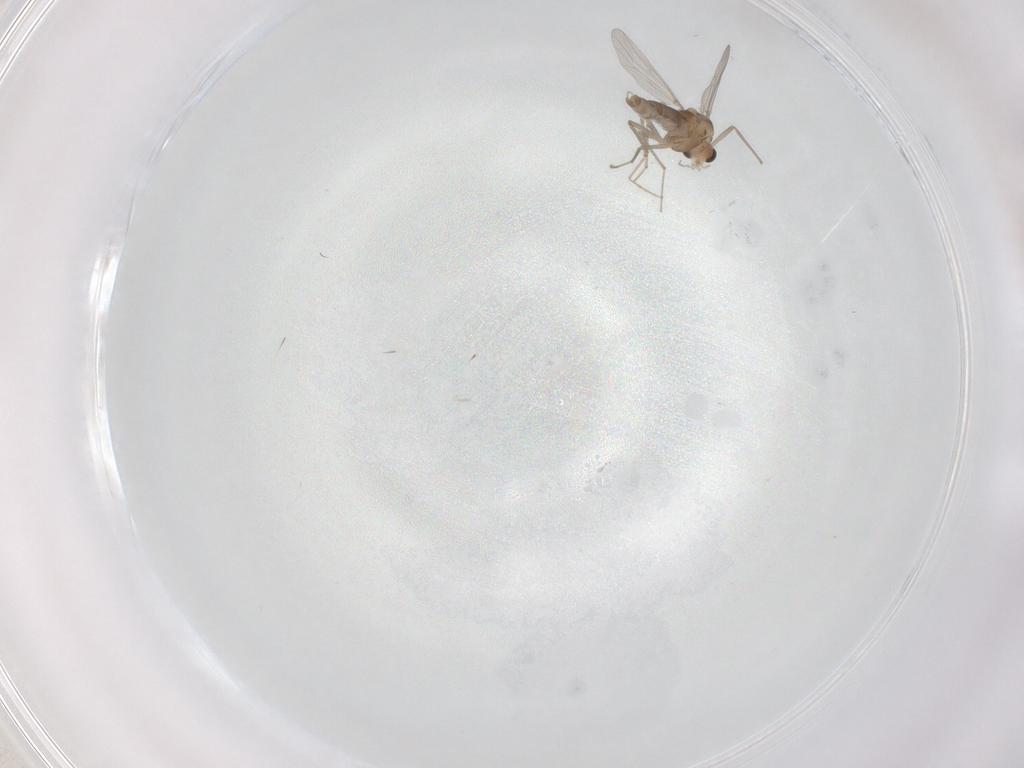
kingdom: Animalia
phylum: Arthropoda
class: Insecta
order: Diptera
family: Chironomidae
